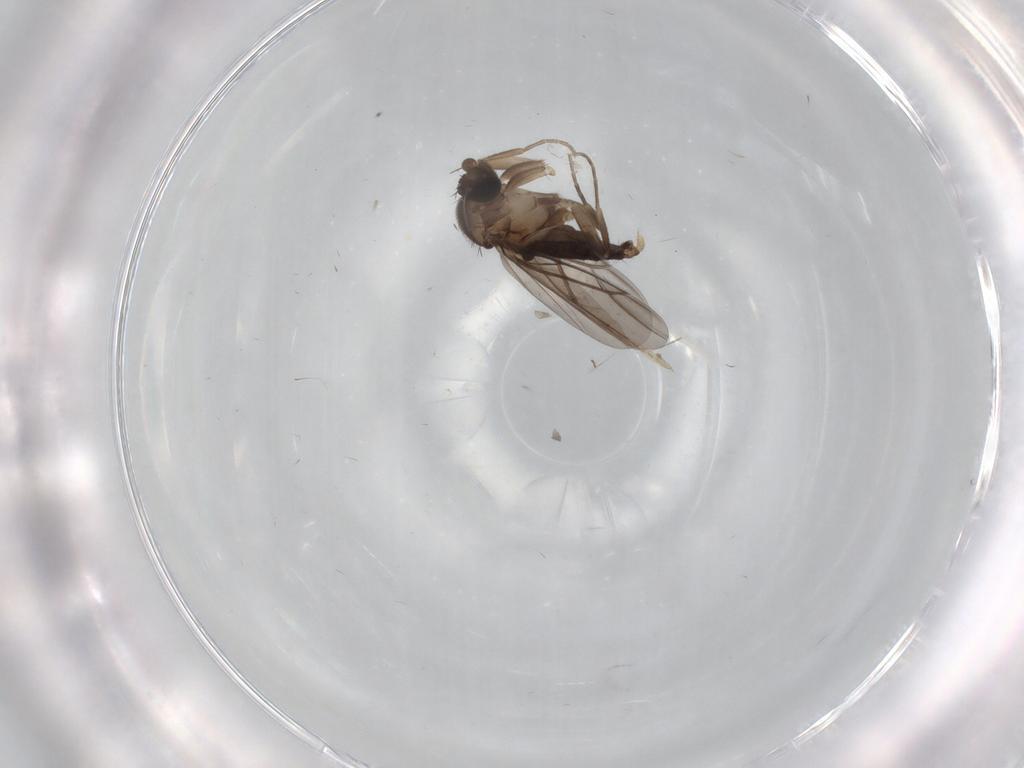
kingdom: Animalia
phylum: Arthropoda
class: Insecta
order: Diptera
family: Phoridae
